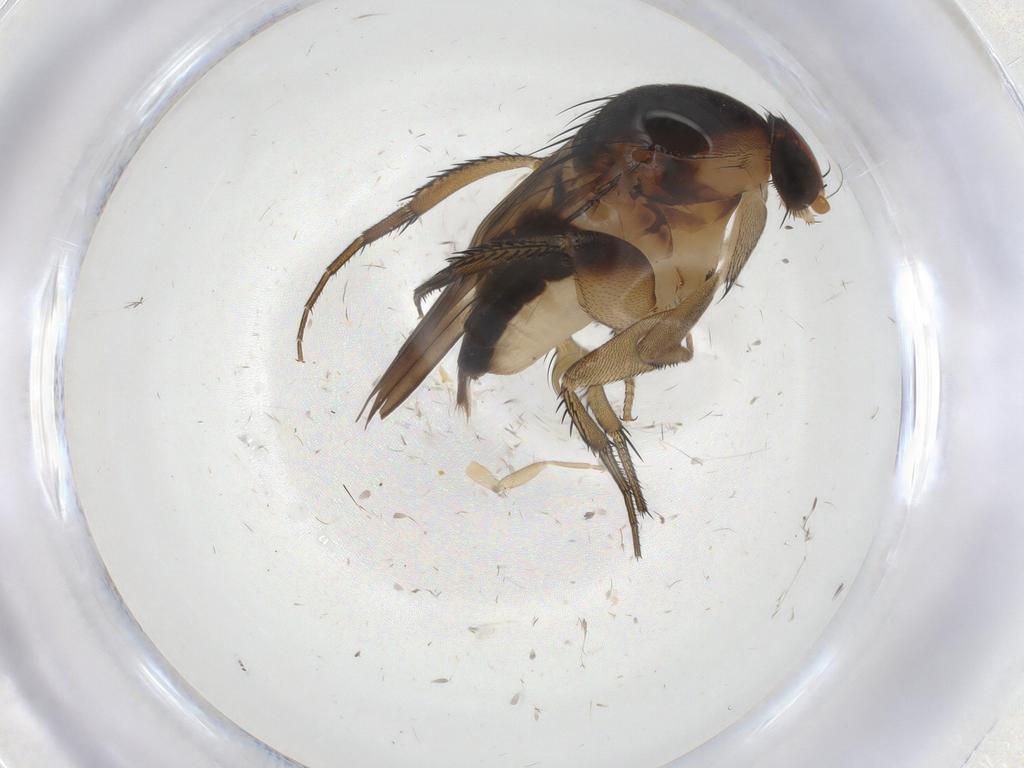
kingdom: Animalia
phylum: Arthropoda
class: Insecta
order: Diptera
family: Phoridae
